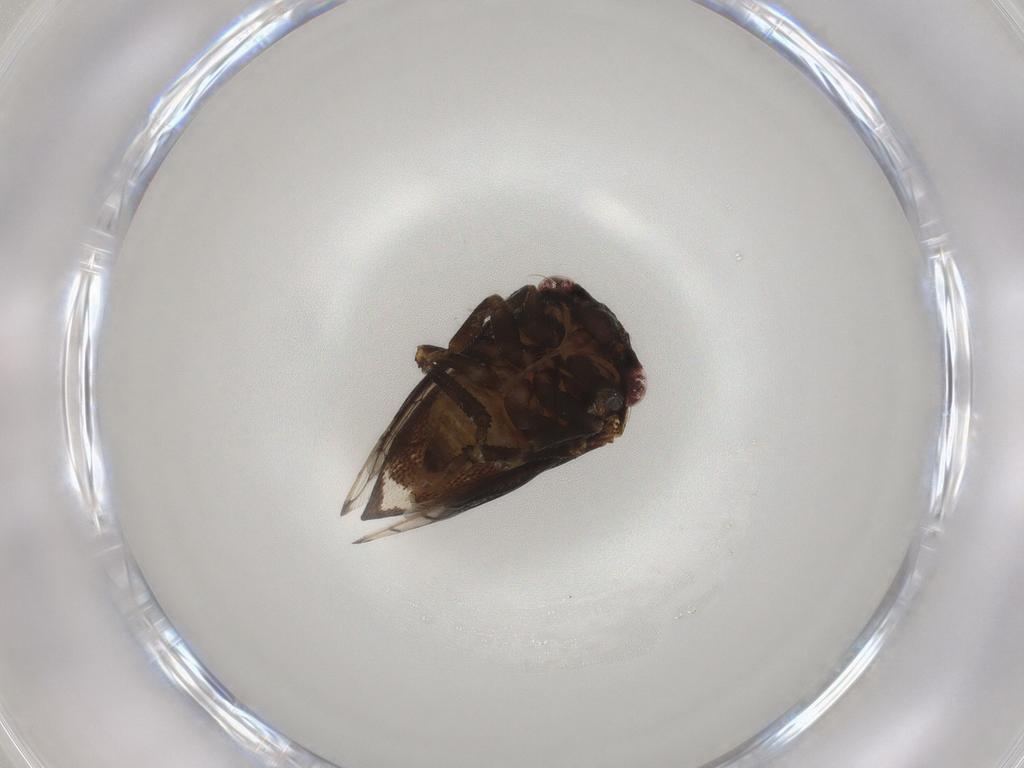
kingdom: Animalia
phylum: Arthropoda
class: Insecta
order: Hemiptera
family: Membracidae
